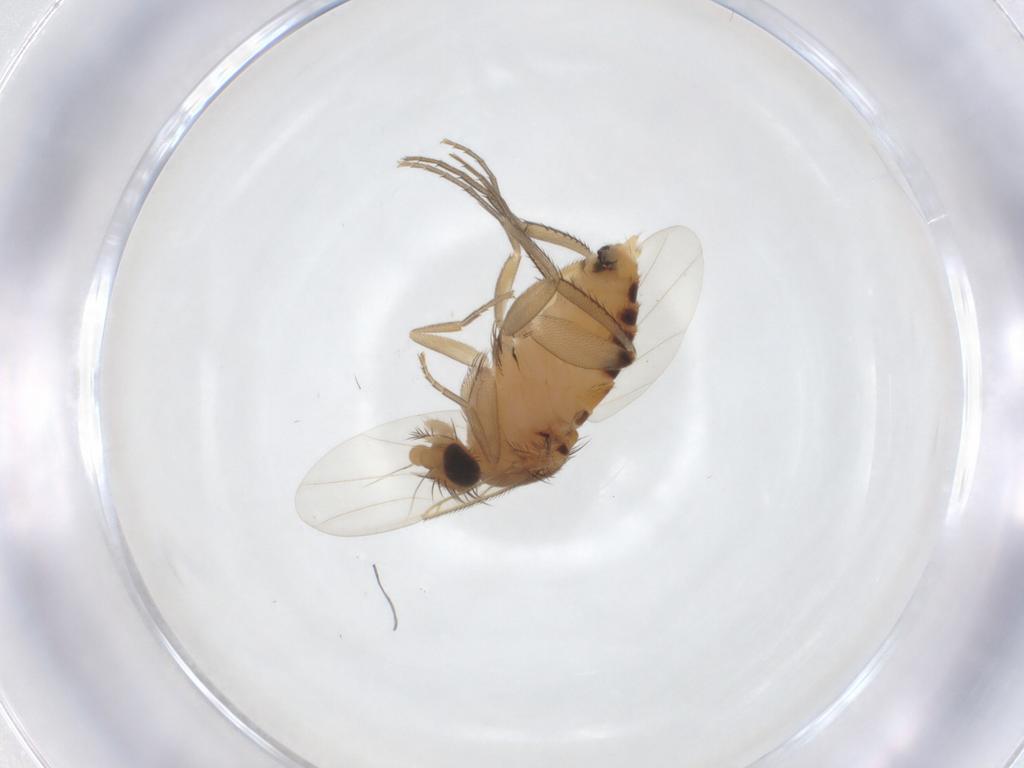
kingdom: Animalia
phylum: Arthropoda
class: Insecta
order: Diptera
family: Phoridae
